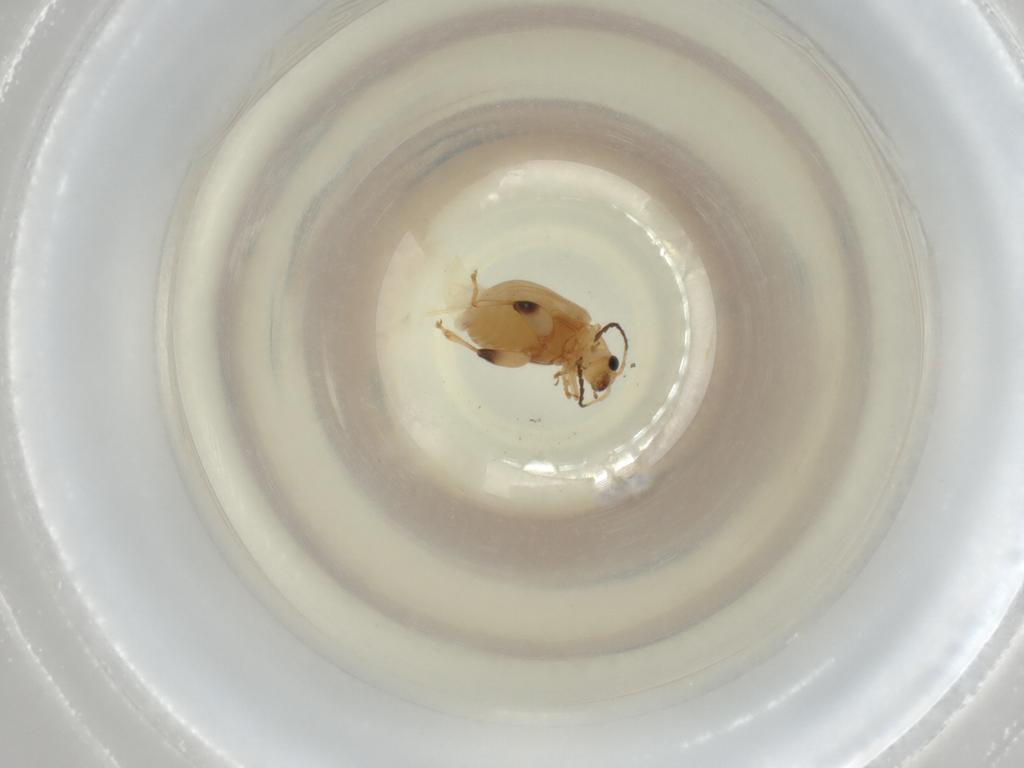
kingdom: Animalia
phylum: Arthropoda
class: Insecta
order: Coleoptera
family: Chrysomelidae
